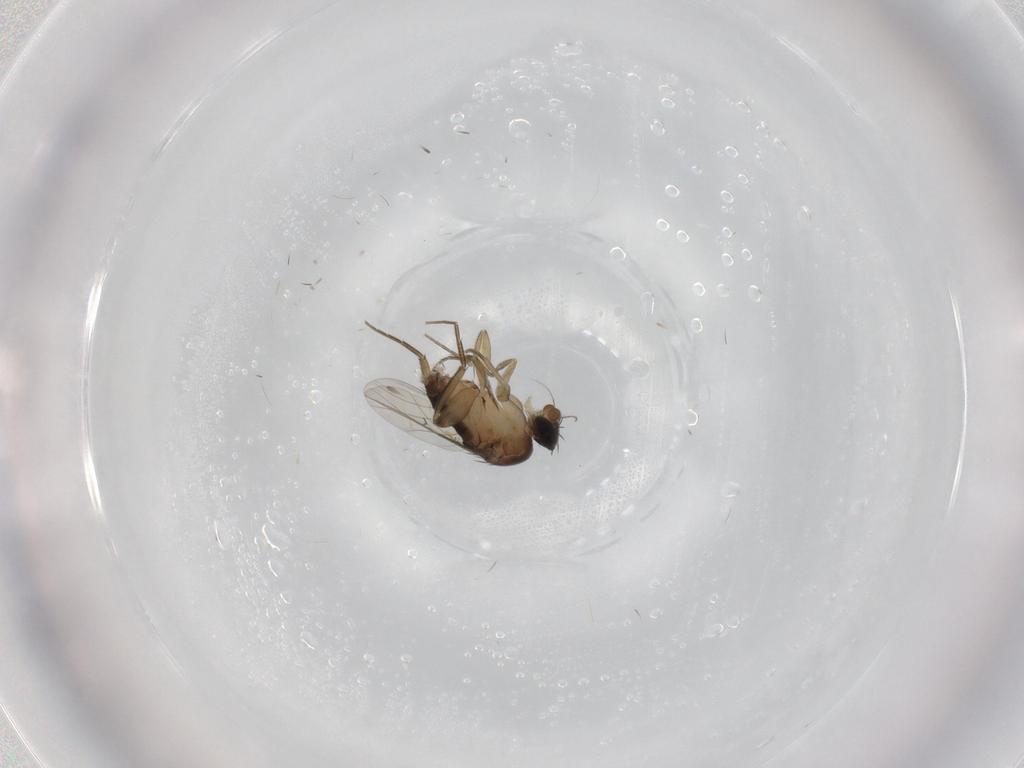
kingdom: Animalia
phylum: Arthropoda
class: Insecta
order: Diptera
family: Phoridae
